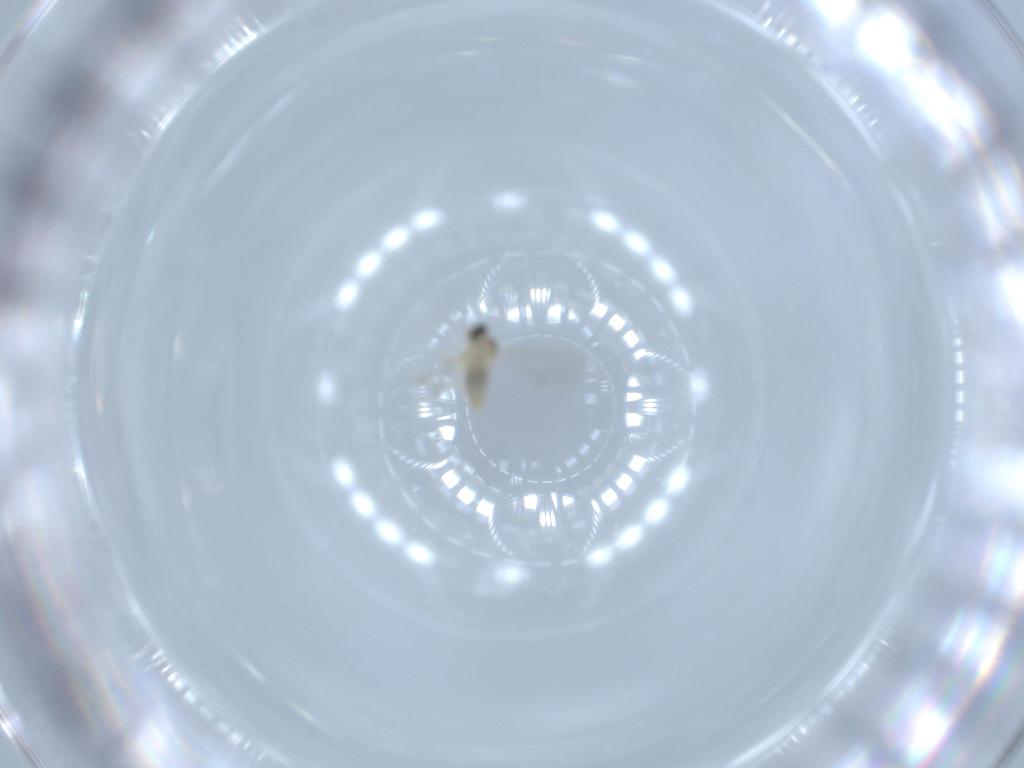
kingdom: Animalia
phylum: Arthropoda
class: Insecta
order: Diptera
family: Cecidomyiidae
